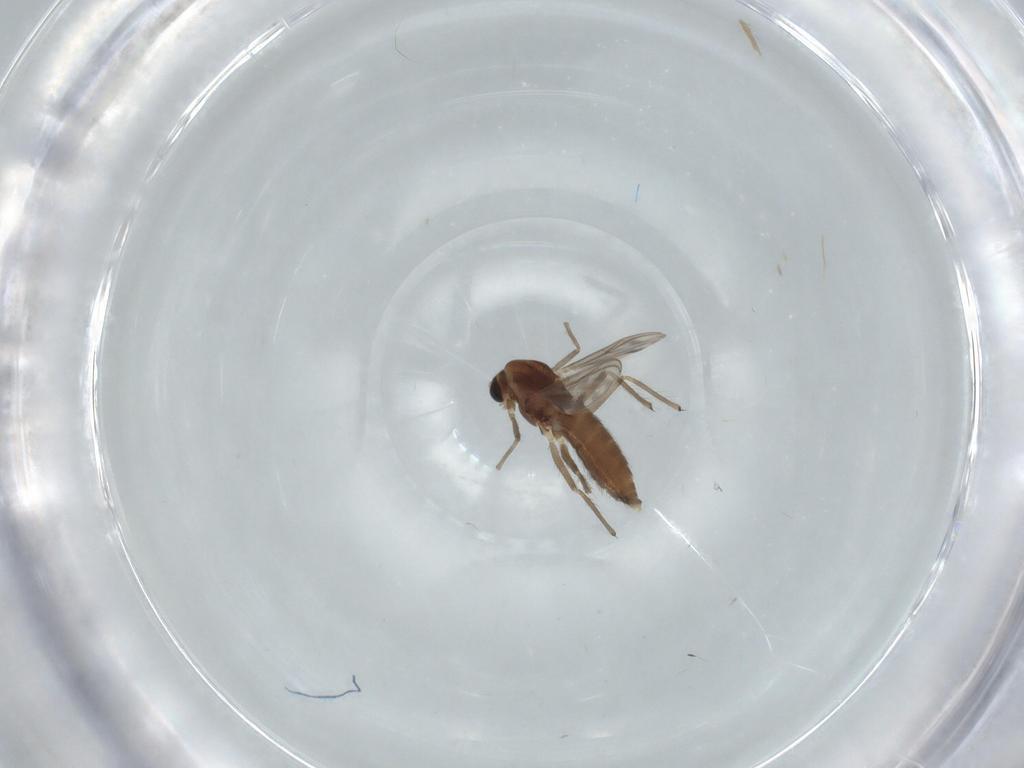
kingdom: Animalia
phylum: Arthropoda
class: Insecta
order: Diptera
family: Chironomidae
